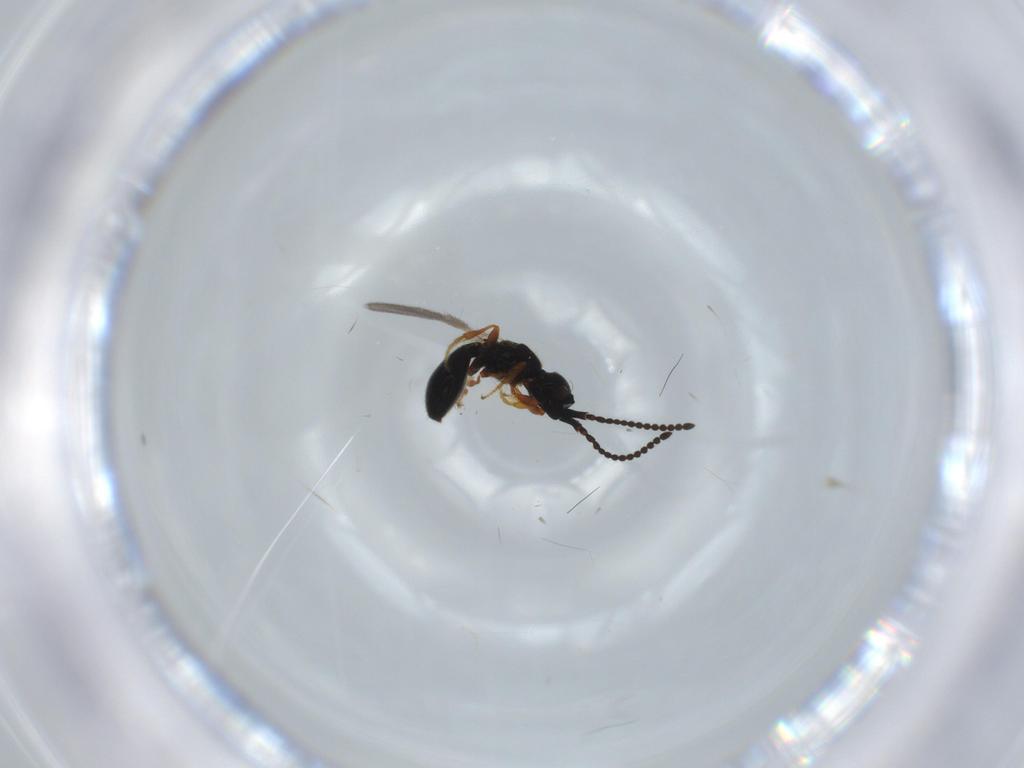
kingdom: Animalia
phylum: Arthropoda
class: Insecta
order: Hymenoptera
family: Diapriidae
